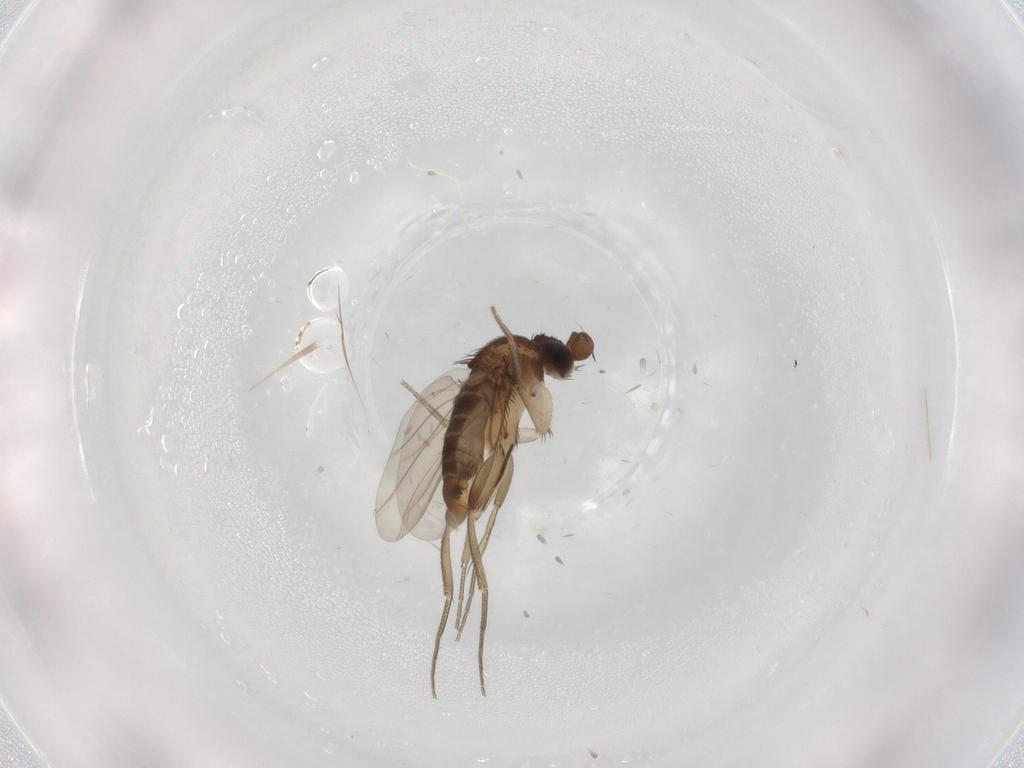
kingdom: Animalia
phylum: Arthropoda
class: Insecta
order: Diptera
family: Phoridae
